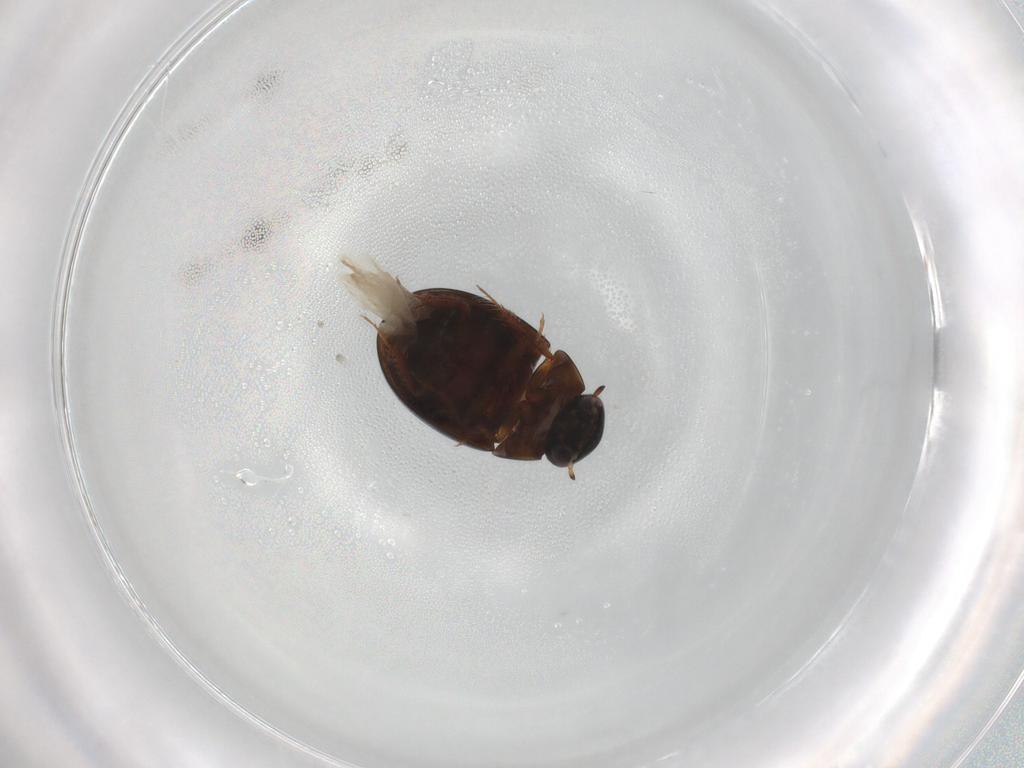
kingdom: Animalia
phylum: Arthropoda
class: Insecta
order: Coleoptera
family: Hydrophilidae
